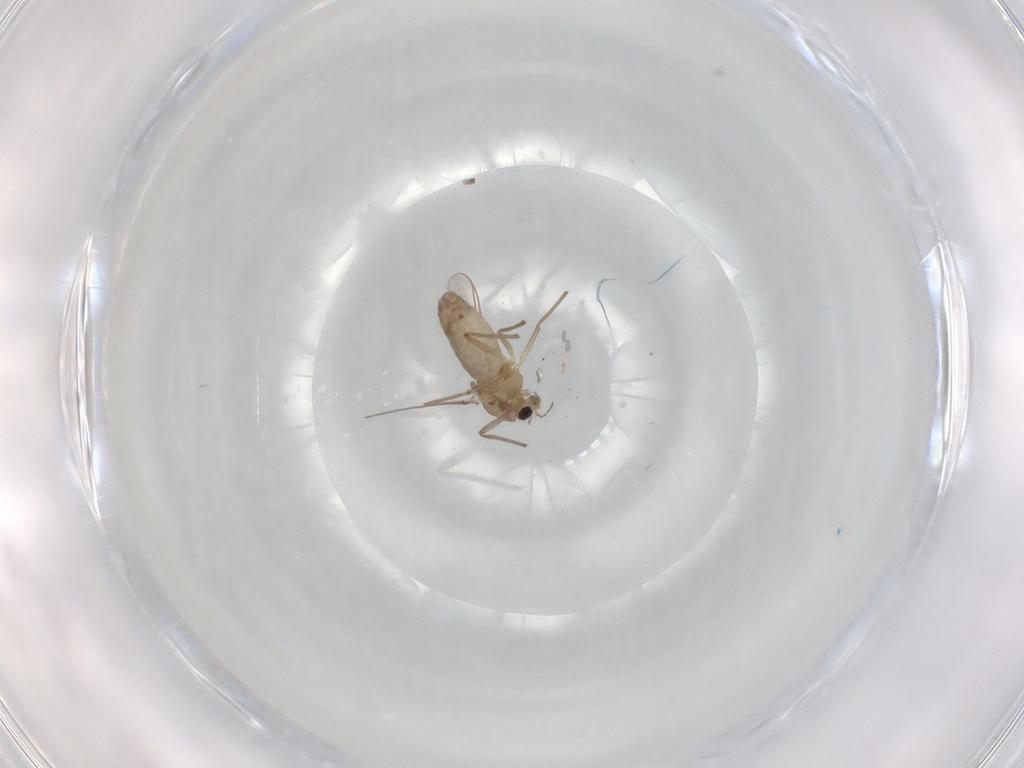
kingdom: Animalia
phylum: Arthropoda
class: Insecta
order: Diptera
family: Chironomidae
